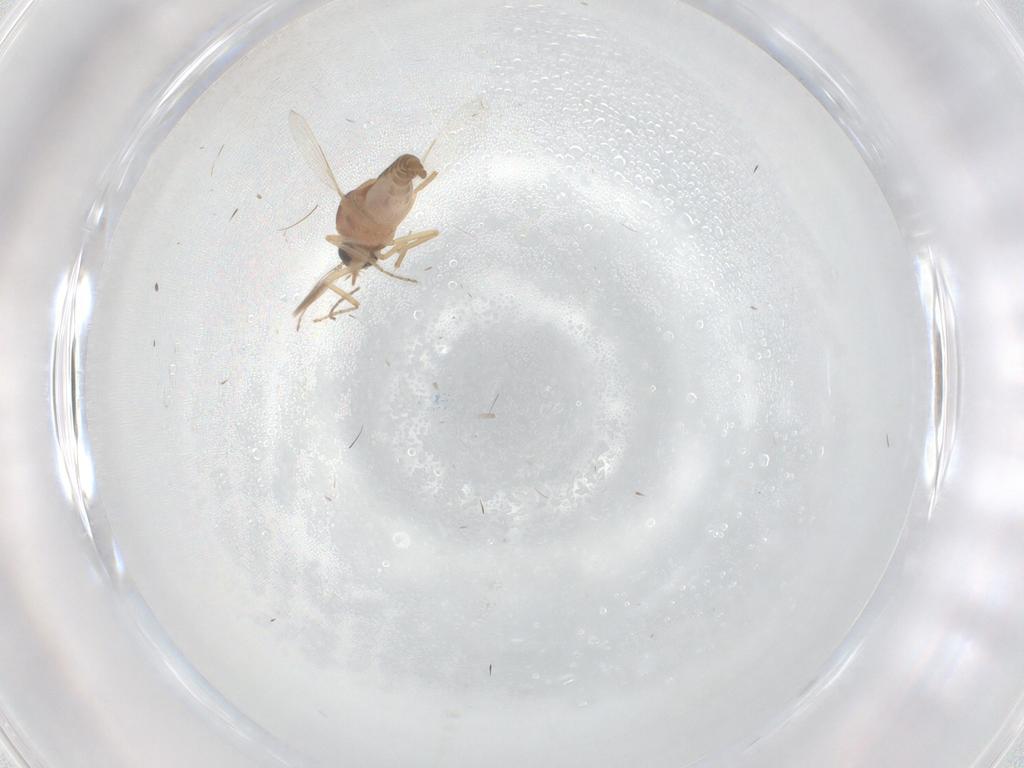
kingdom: Animalia
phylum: Arthropoda
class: Insecta
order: Diptera
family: Ceratopogonidae
